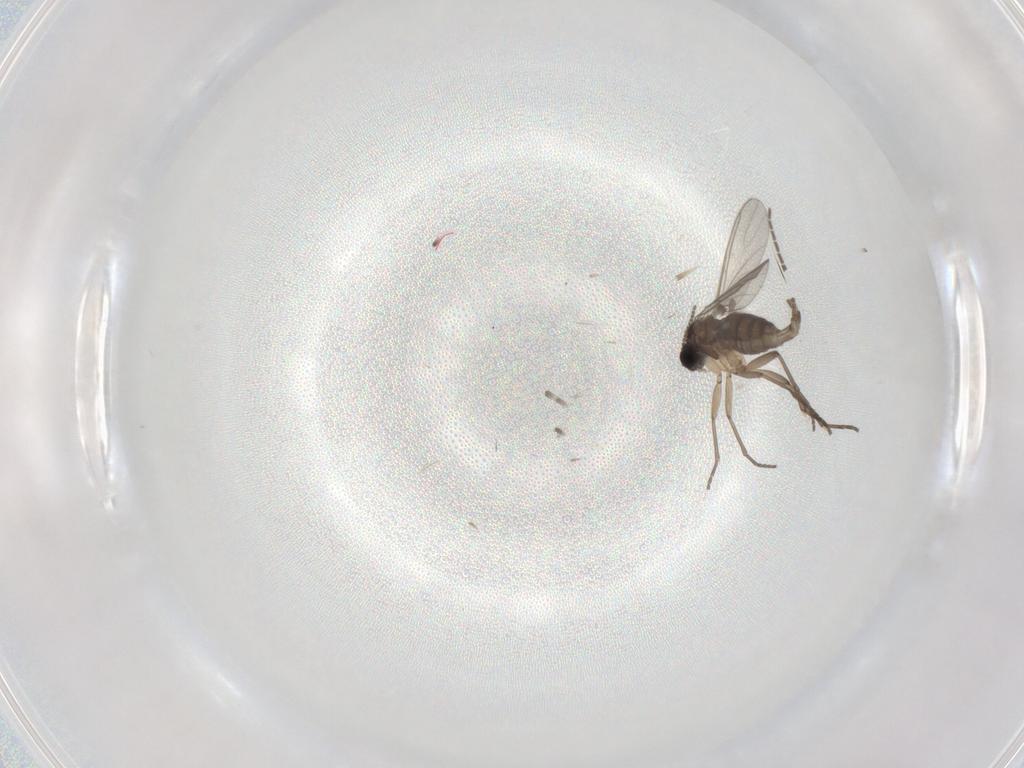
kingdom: Animalia
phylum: Arthropoda
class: Insecta
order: Diptera
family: Sciaridae
